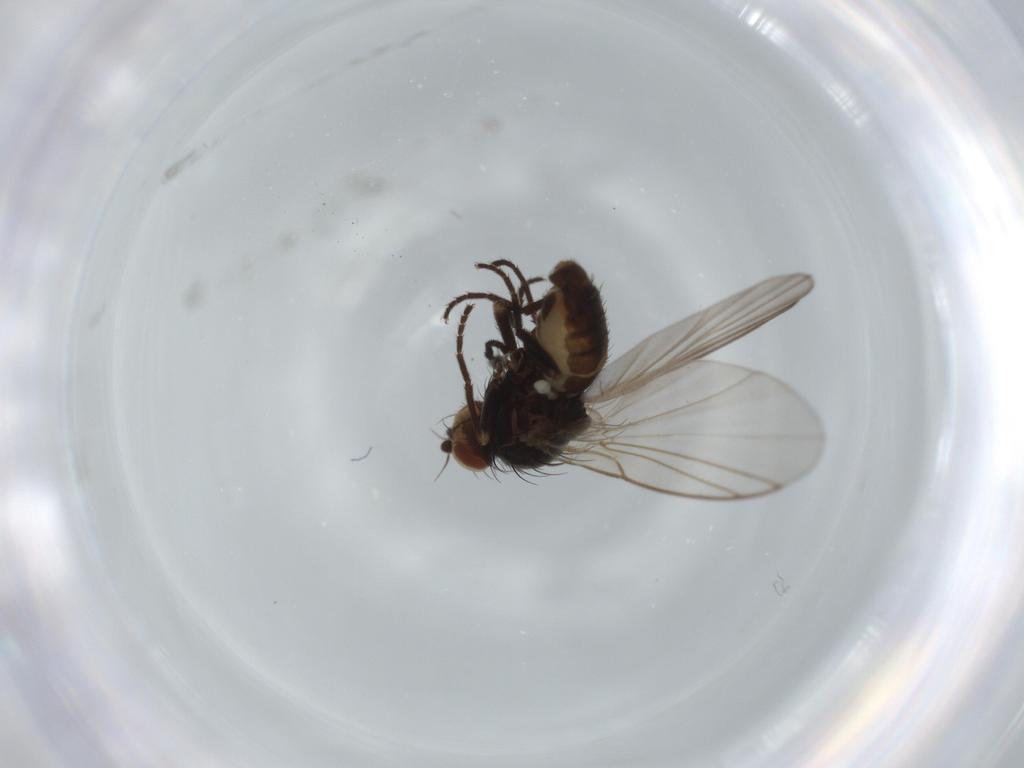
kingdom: Animalia
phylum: Arthropoda
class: Insecta
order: Diptera
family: Agromyzidae
